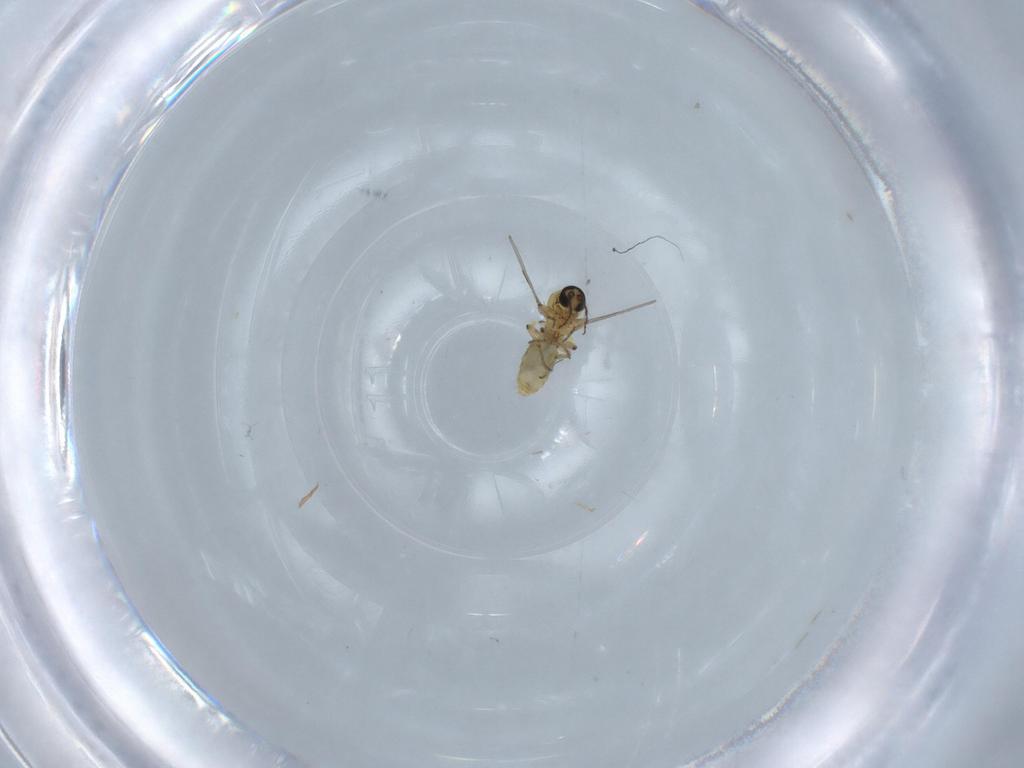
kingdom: Animalia
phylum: Arthropoda
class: Insecta
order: Diptera
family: Ceratopogonidae
